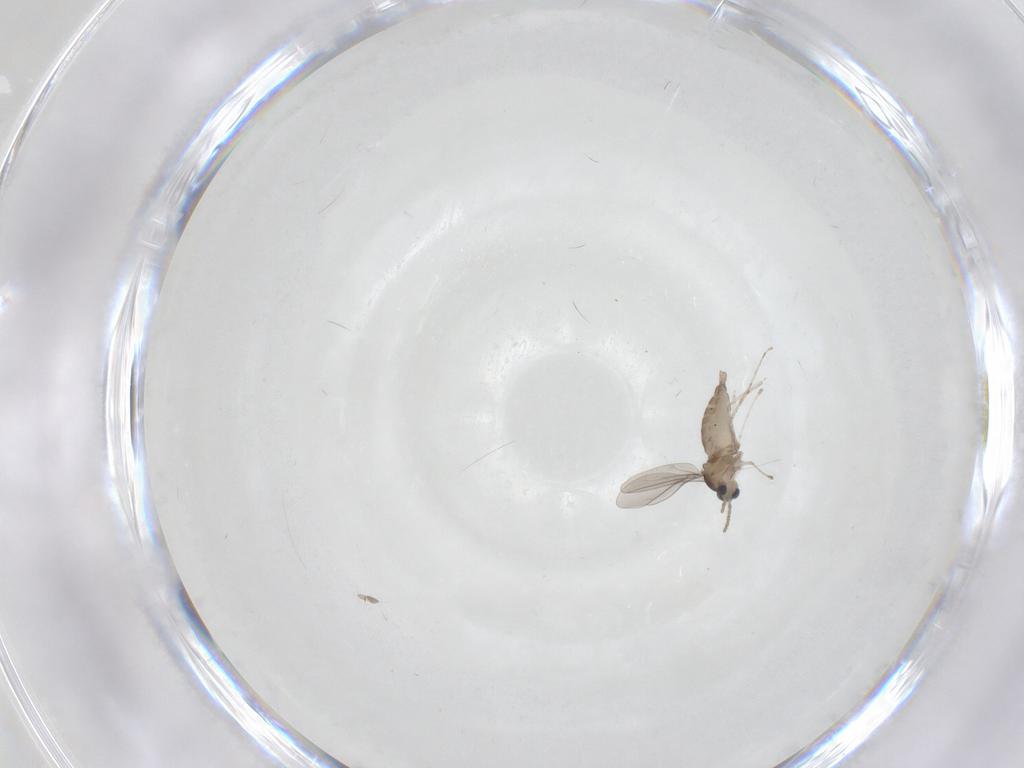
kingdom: Animalia
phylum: Arthropoda
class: Insecta
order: Diptera
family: Cecidomyiidae
